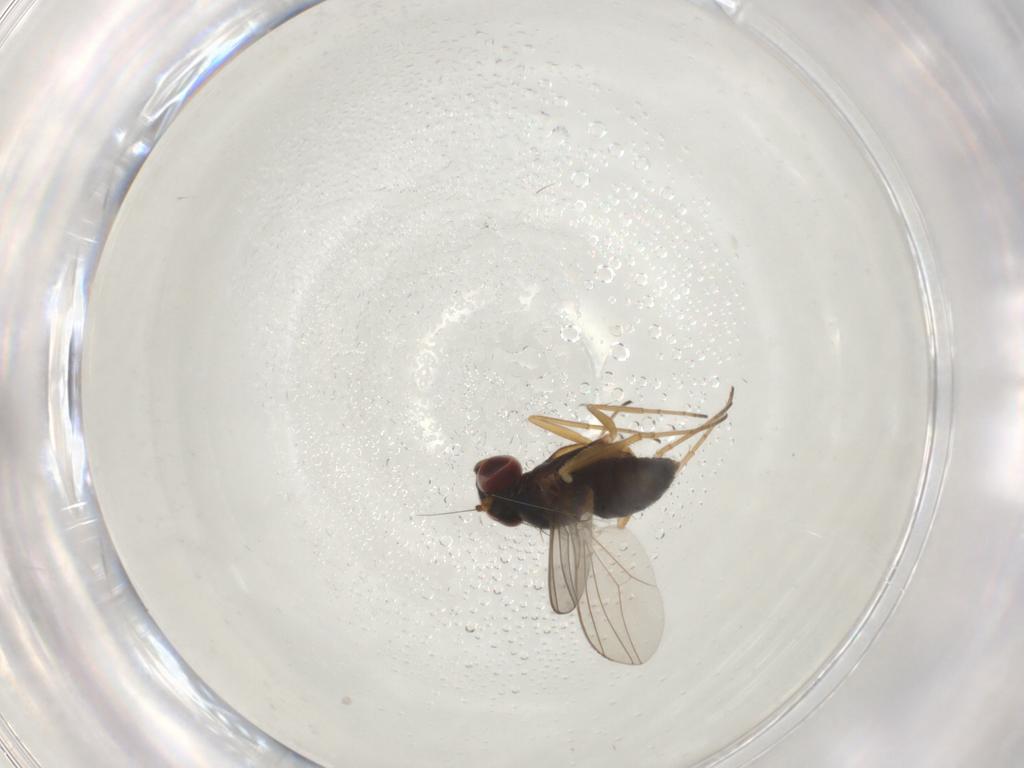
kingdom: Animalia
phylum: Arthropoda
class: Insecta
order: Diptera
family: Dolichopodidae
